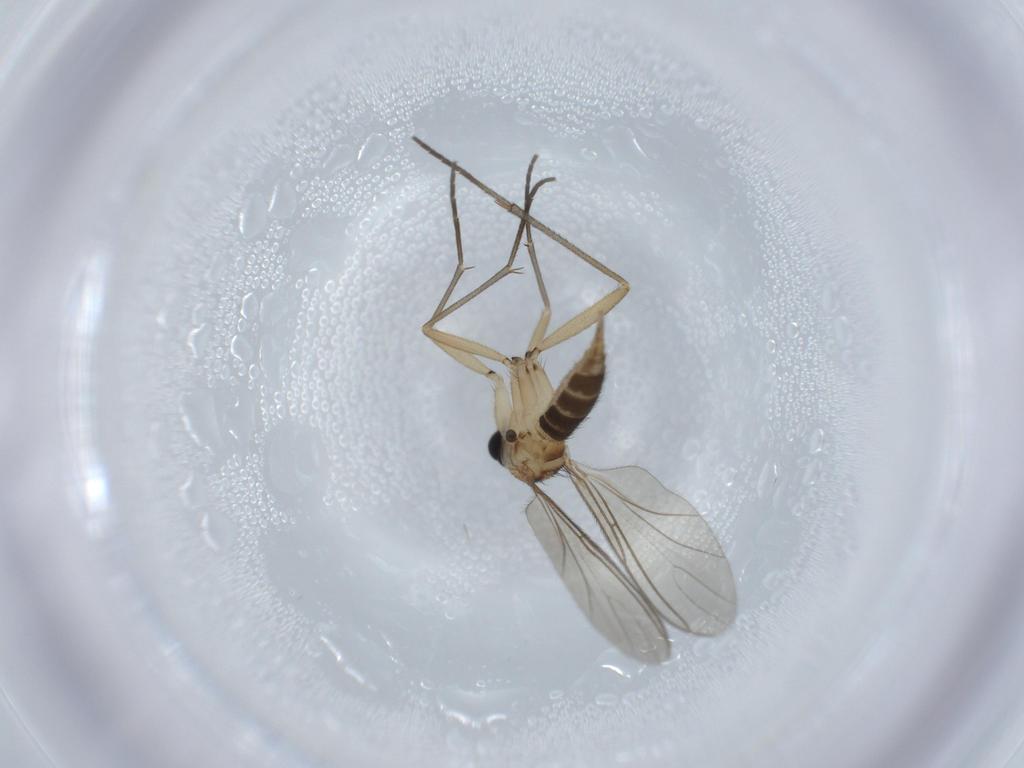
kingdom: Animalia
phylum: Arthropoda
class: Insecta
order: Diptera
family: Sciaridae
